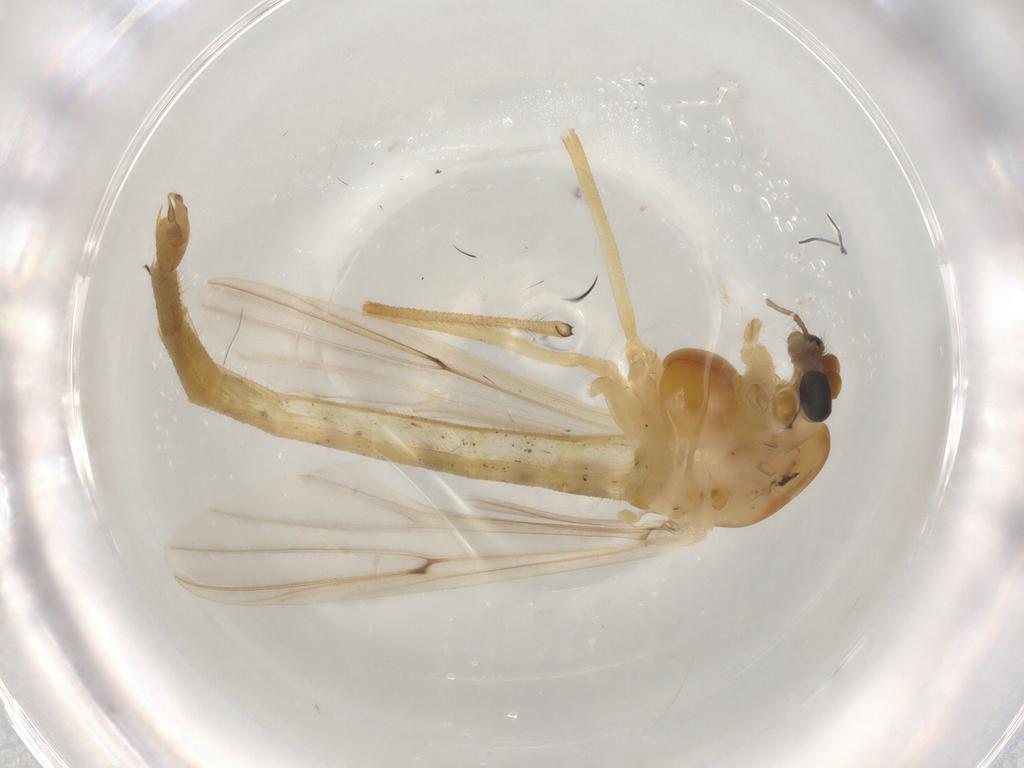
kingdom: Animalia
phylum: Arthropoda
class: Insecta
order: Diptera
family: Chironomidae
